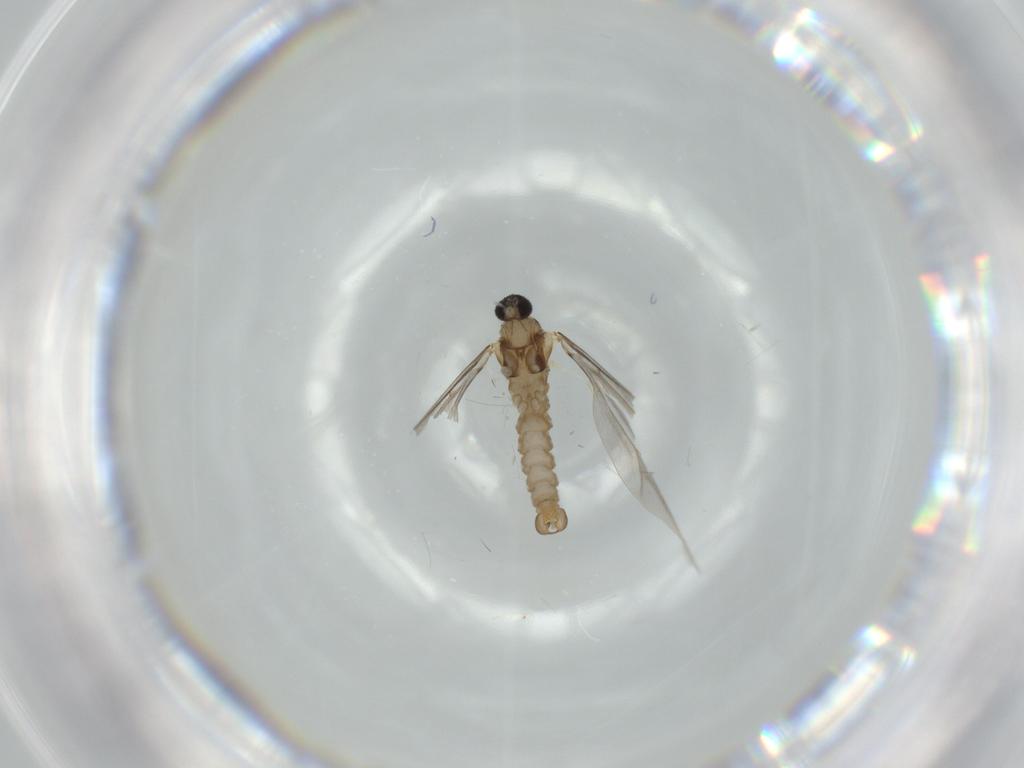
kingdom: Animalia
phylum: Arthropoda
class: Insecta
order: Diptera
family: Cecidomyiidae
